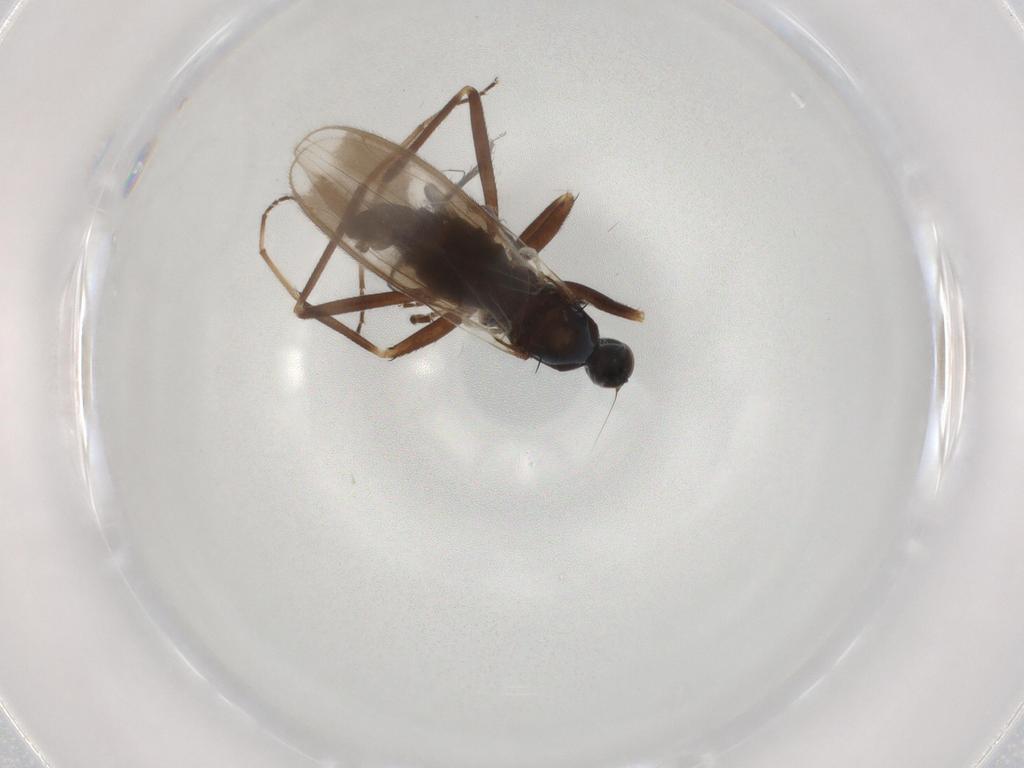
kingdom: Animalia
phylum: Arthropoda
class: Insecta
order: Diptera
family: Hybotidae
